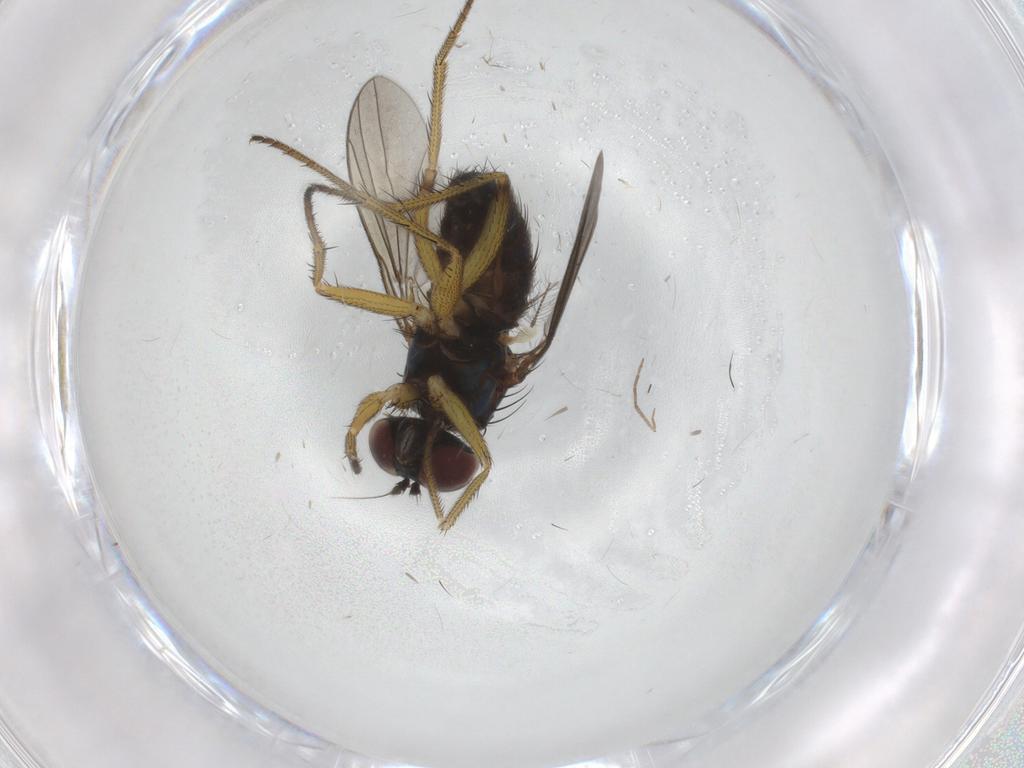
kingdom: Animalia
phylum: Arthropoda
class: Insecta
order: Diptera
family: Dolichopodidae
